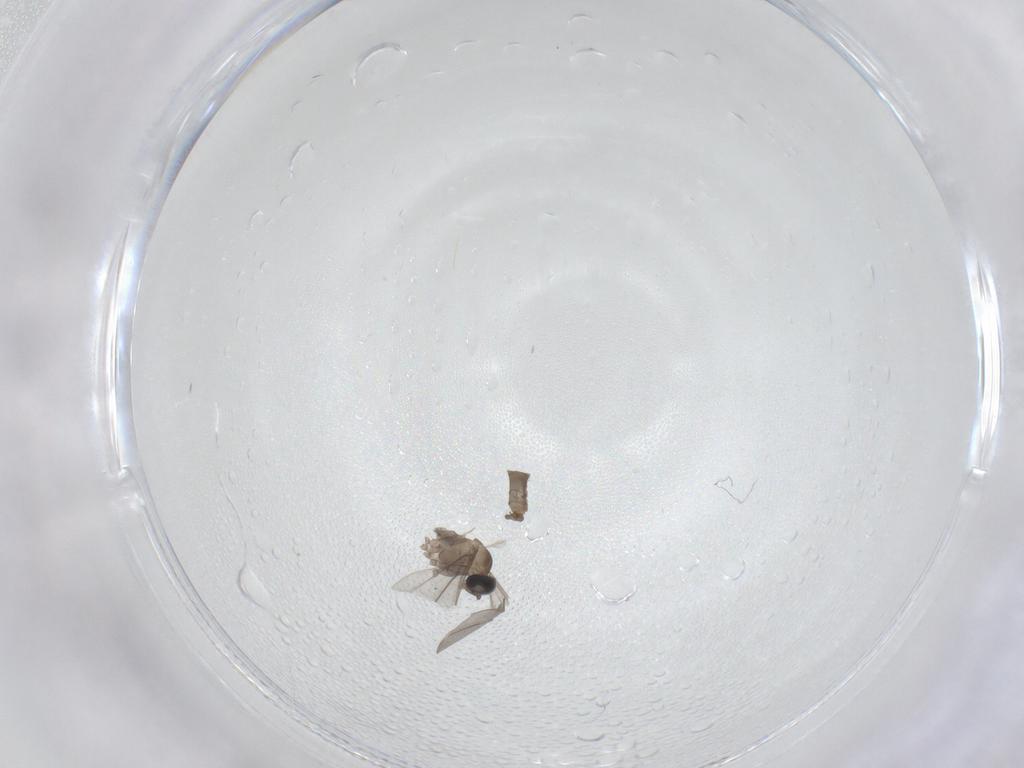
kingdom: Animalia
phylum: Arthropoda
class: Insecta
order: Diptera
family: Cecidomyiidae
